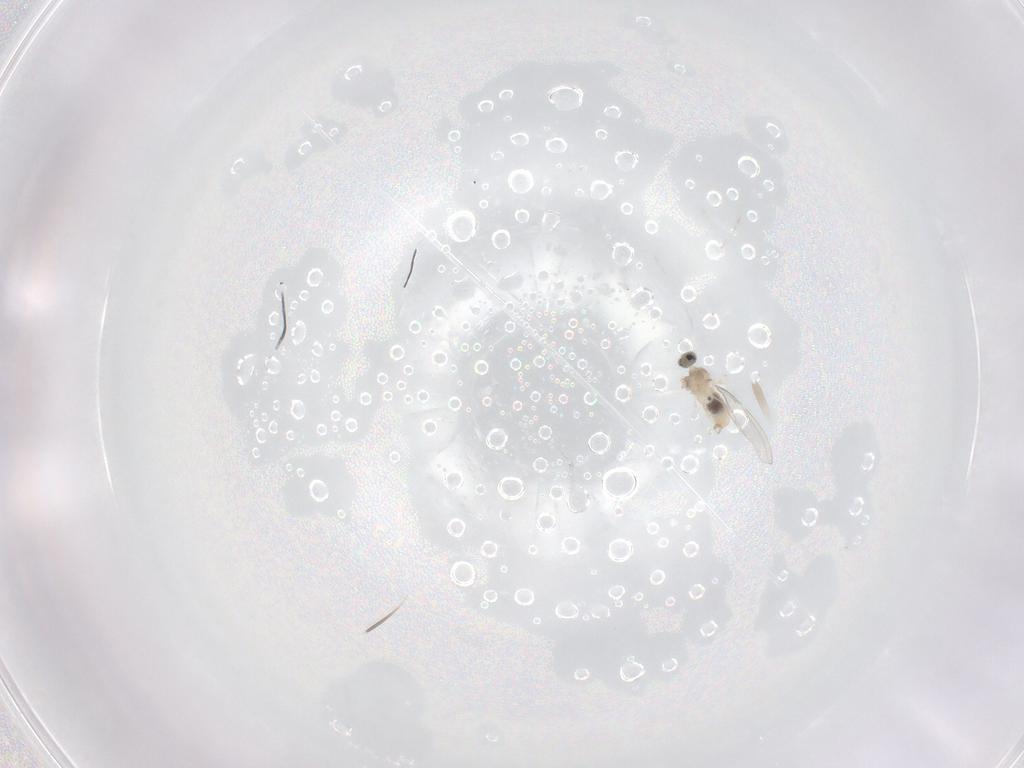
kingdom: Animalia
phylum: Arthropoda
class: Insecta
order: Diptera
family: Cecidomyiidae
